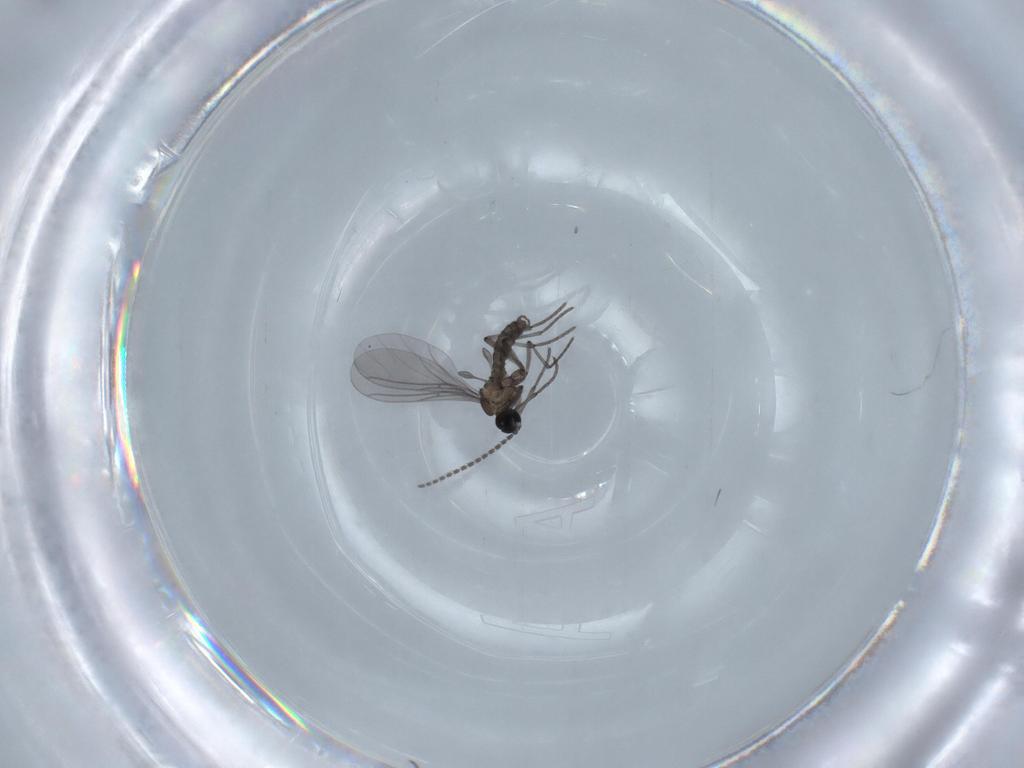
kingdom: Animalia
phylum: Arthropoda
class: Insecta
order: Diptera
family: Sciaridae
